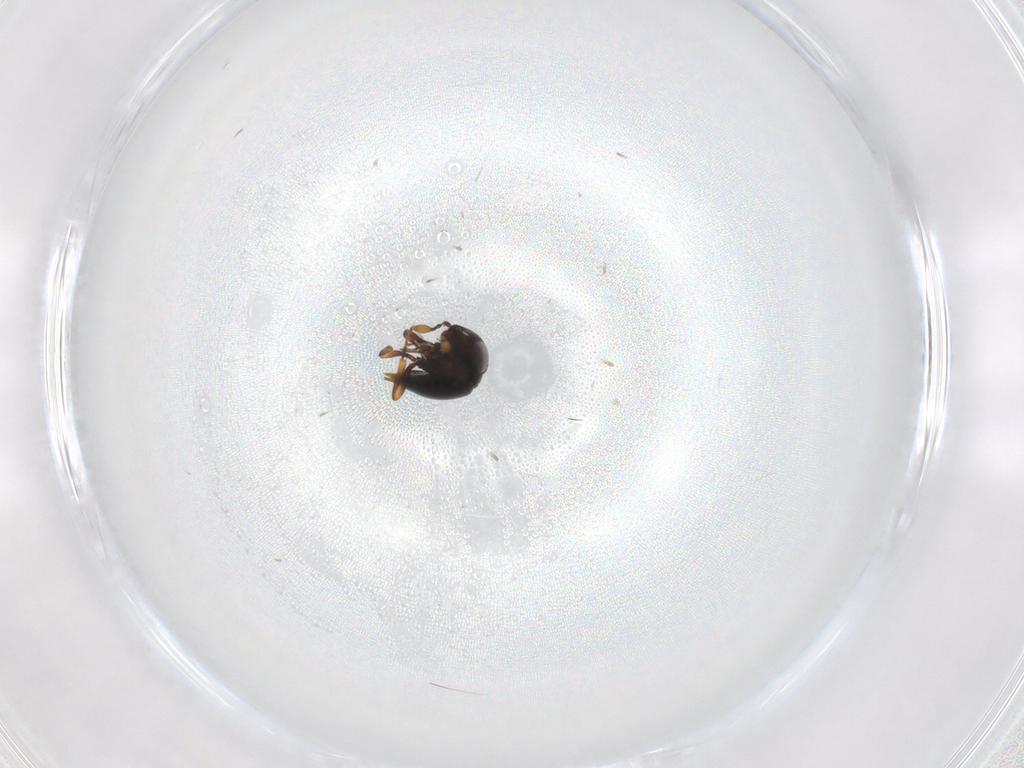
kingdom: Animalia
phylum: Arthropoda
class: Insecta
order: Hymenoptera
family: Scelionidae
